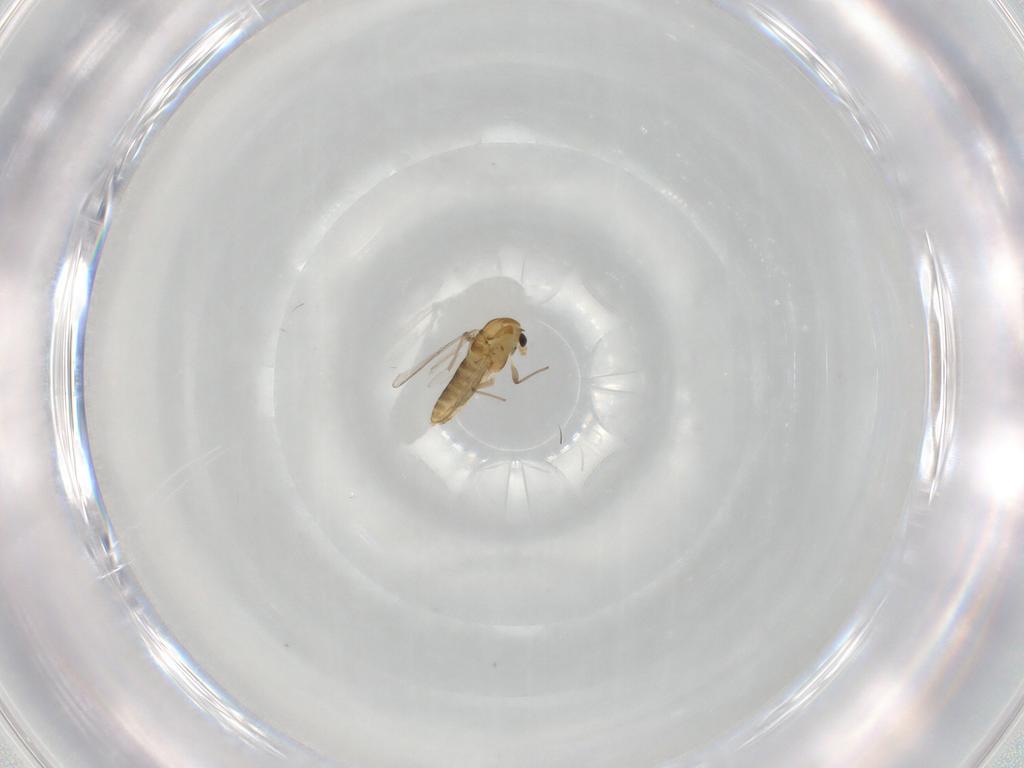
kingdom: Animalia
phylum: Arthropoda
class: Insecta
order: Diptera
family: Chironomidae
